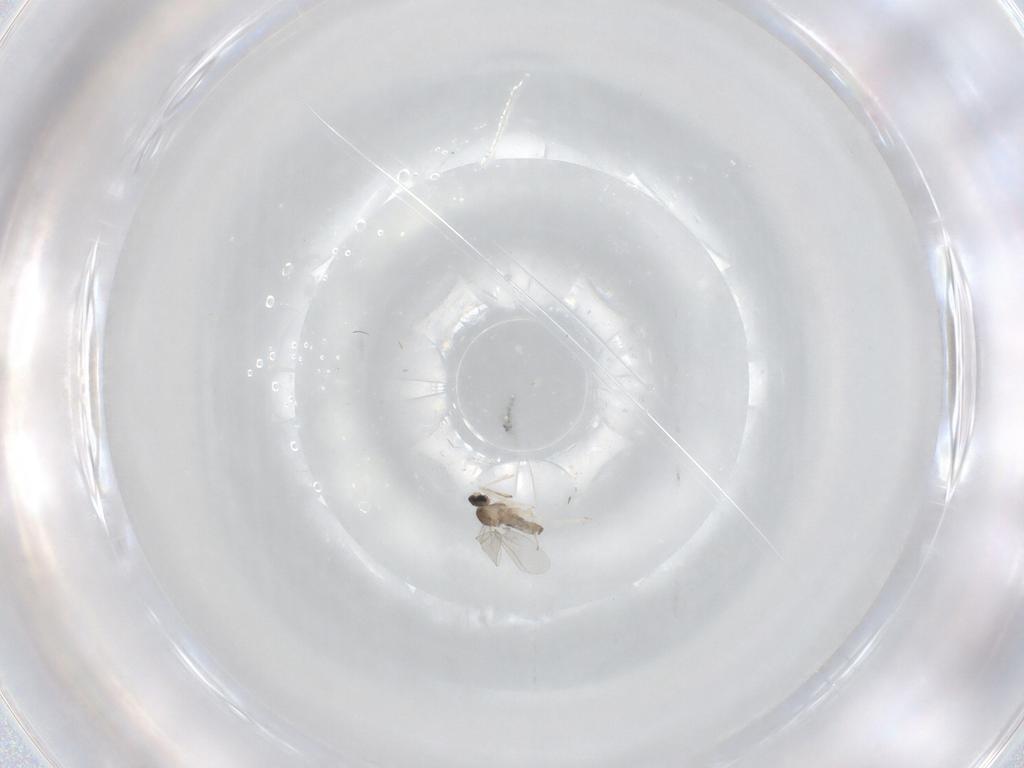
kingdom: Animalia
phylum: Arthropoda
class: Insecta
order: Diptera
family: Cecidomyiidae
